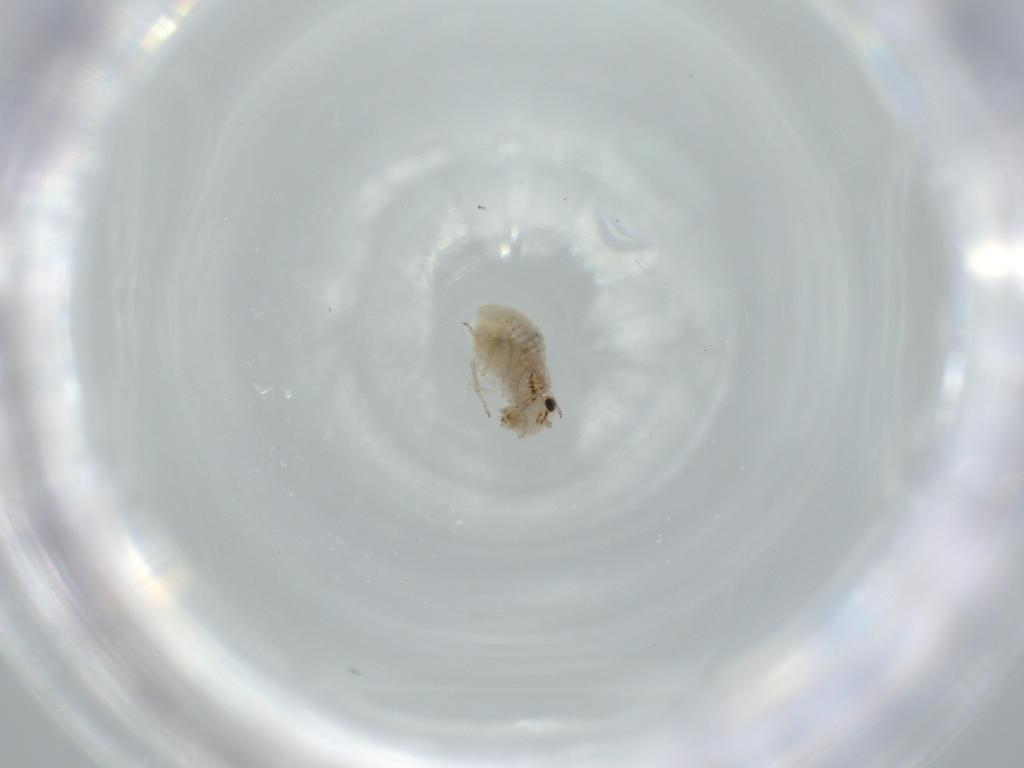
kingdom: Animalia
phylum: Arthropoda
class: Insecta
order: Psocodea
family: Lachesillidae
